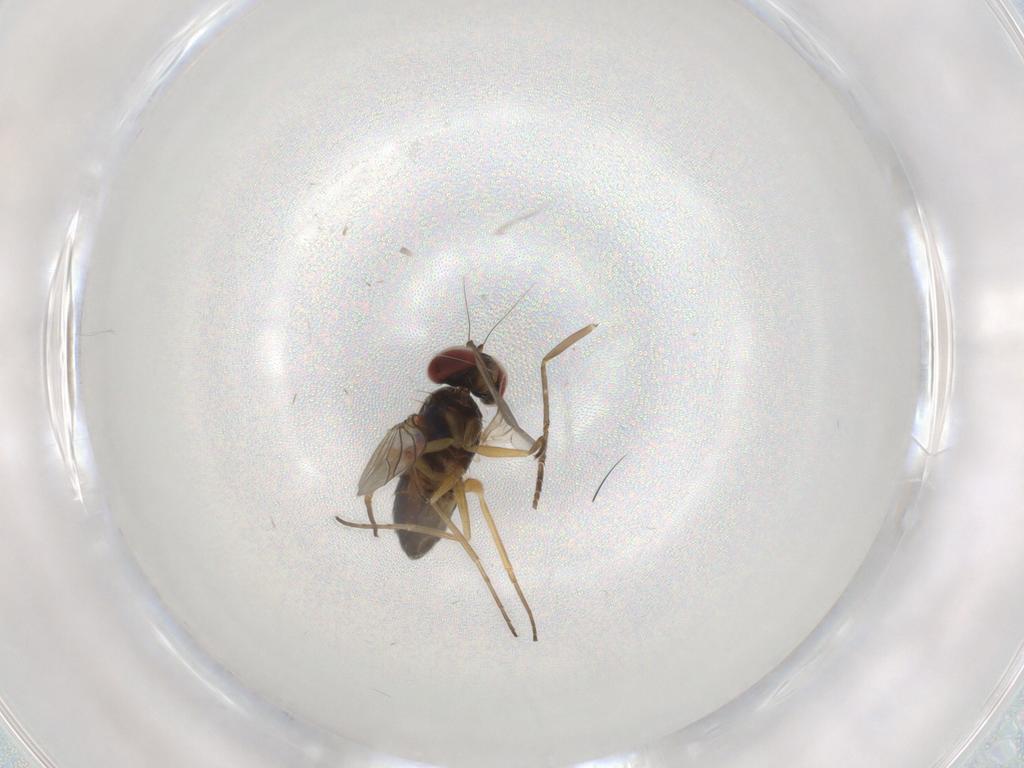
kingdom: Animalia
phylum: Arthropoda
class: Insecta
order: Diptera
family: Dolichopodidae
